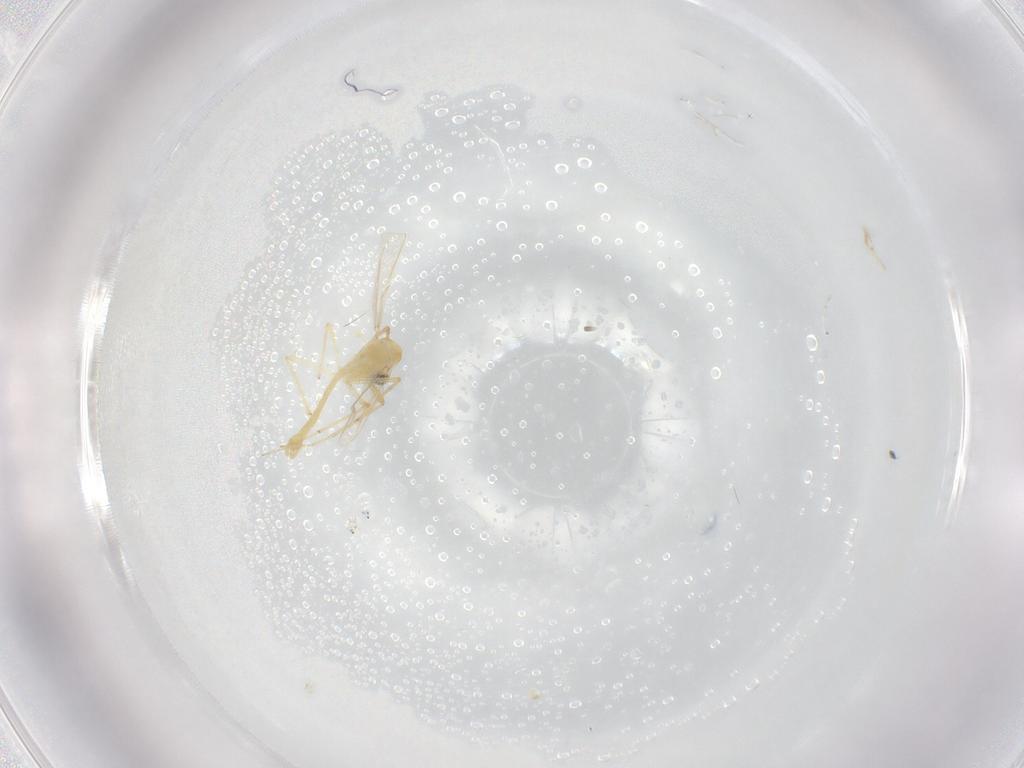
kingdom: Animalia
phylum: Arthropoda
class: Insecta
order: Diptera
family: Chironomidae
